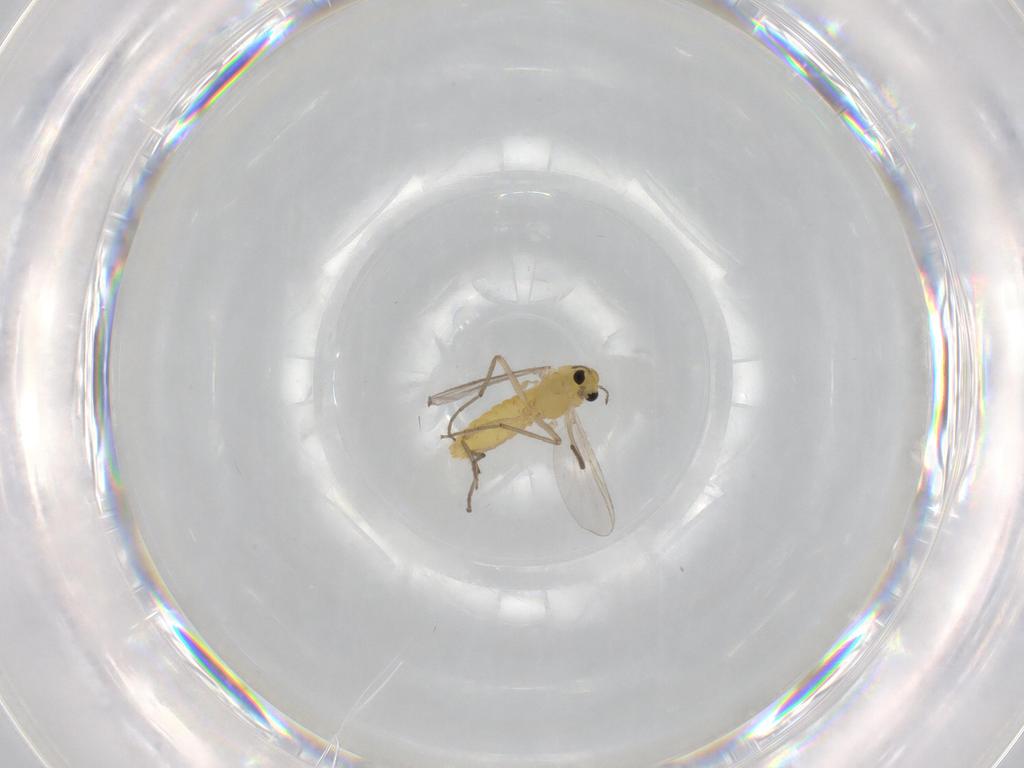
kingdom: Animalia
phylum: Arthropoda
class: Insecta
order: Diptera
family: Chironomidae
